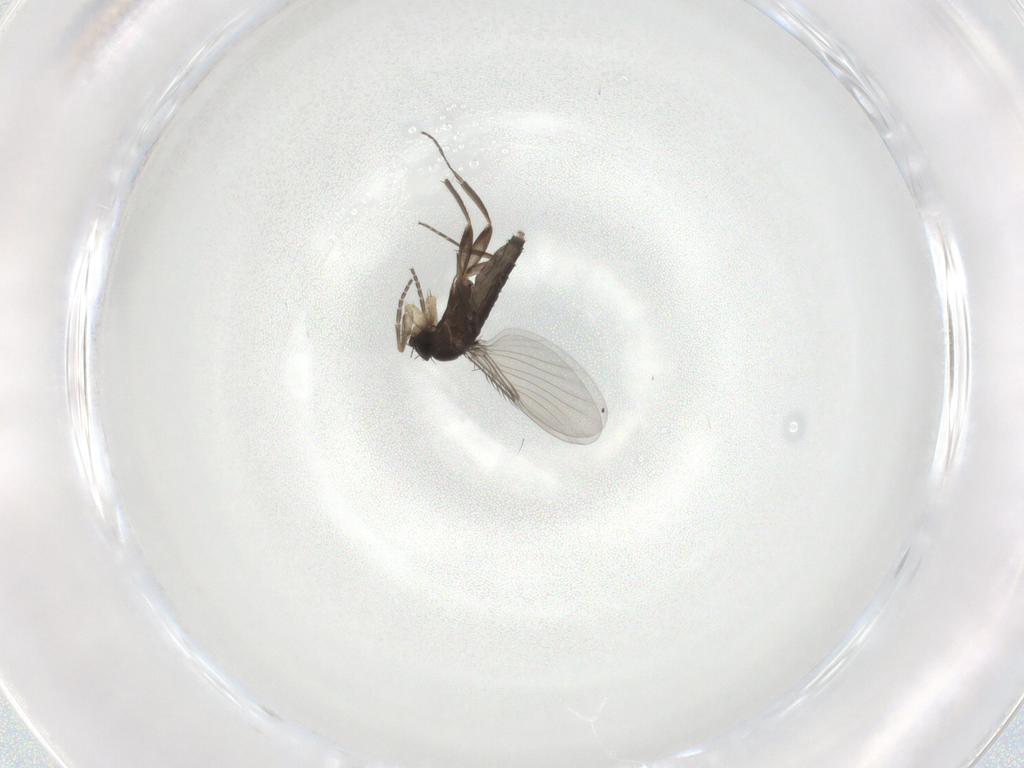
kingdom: Animalia
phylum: Arthropoda
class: Insecta
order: Diptera
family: Phoridae
